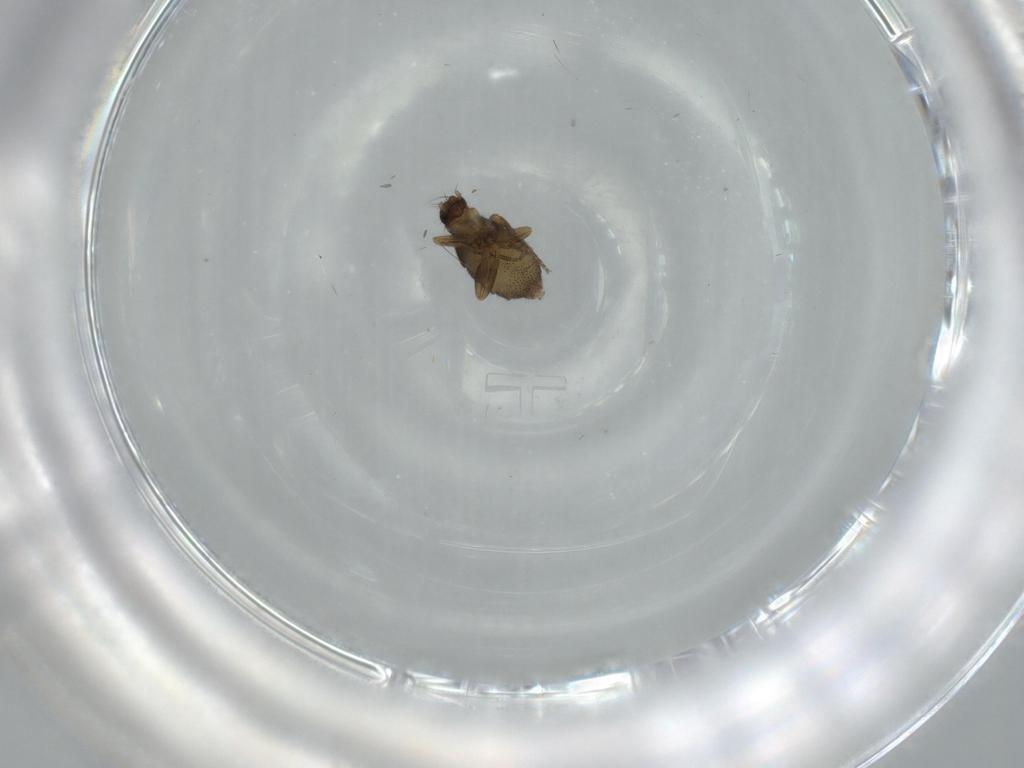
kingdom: Animalia
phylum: Arthropoda
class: Insecta
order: Diptera
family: Phoridae
